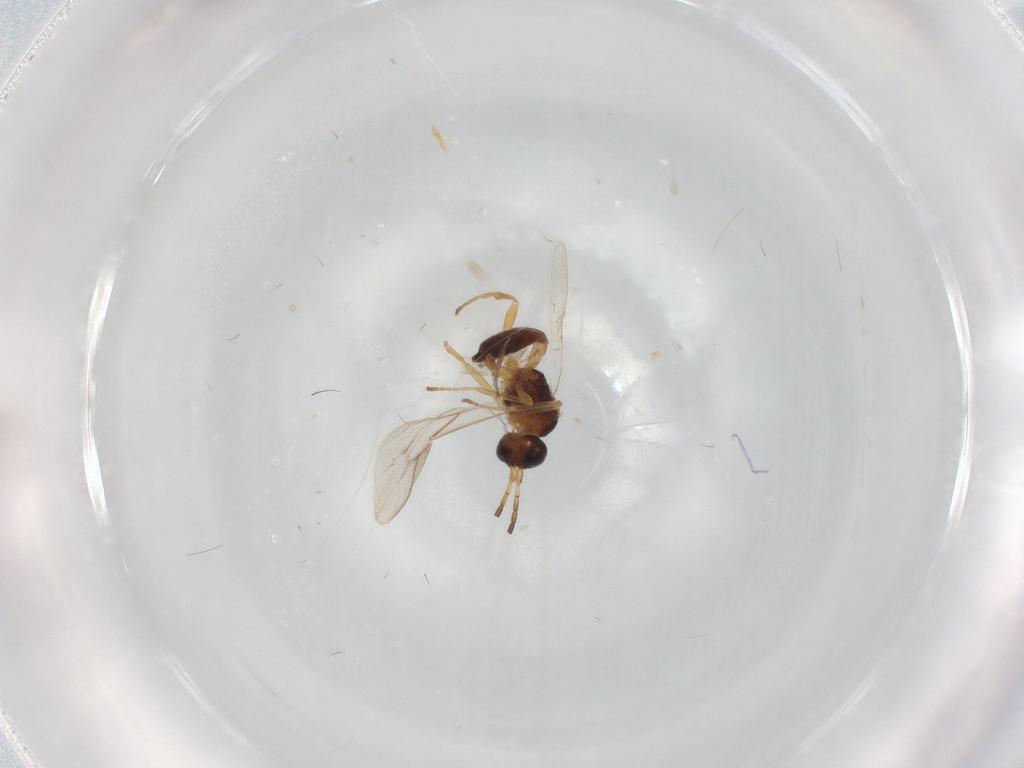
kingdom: Animalia
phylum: Arthropoda
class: Insecta
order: Hymenoptera
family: Braconidae
